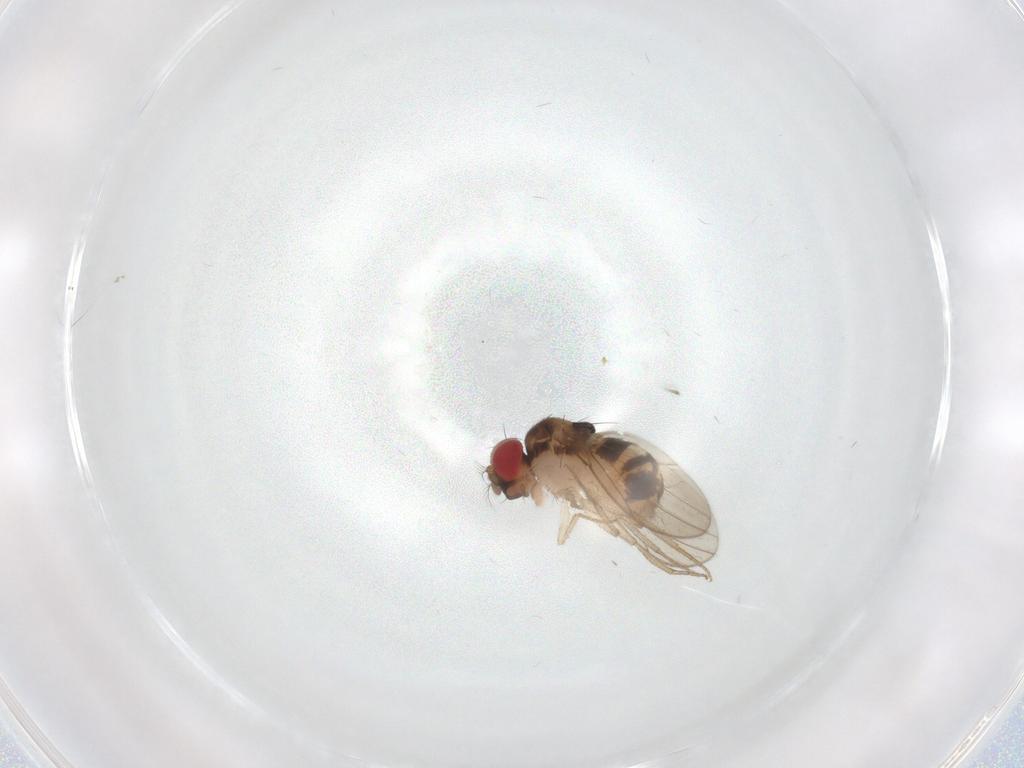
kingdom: Animalia
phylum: Arthropoda
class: Insecta
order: Diptera
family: Drosophilidae
